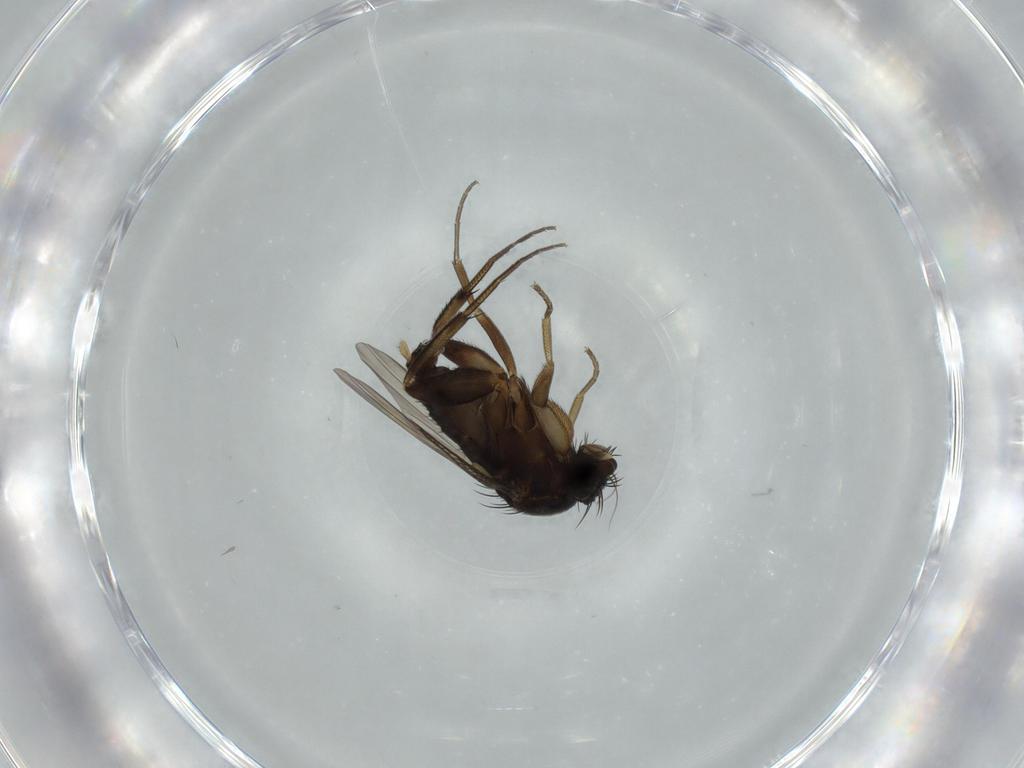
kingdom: Animalia
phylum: Arthropoda
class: Insecta
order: Diptera
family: Phoridae
